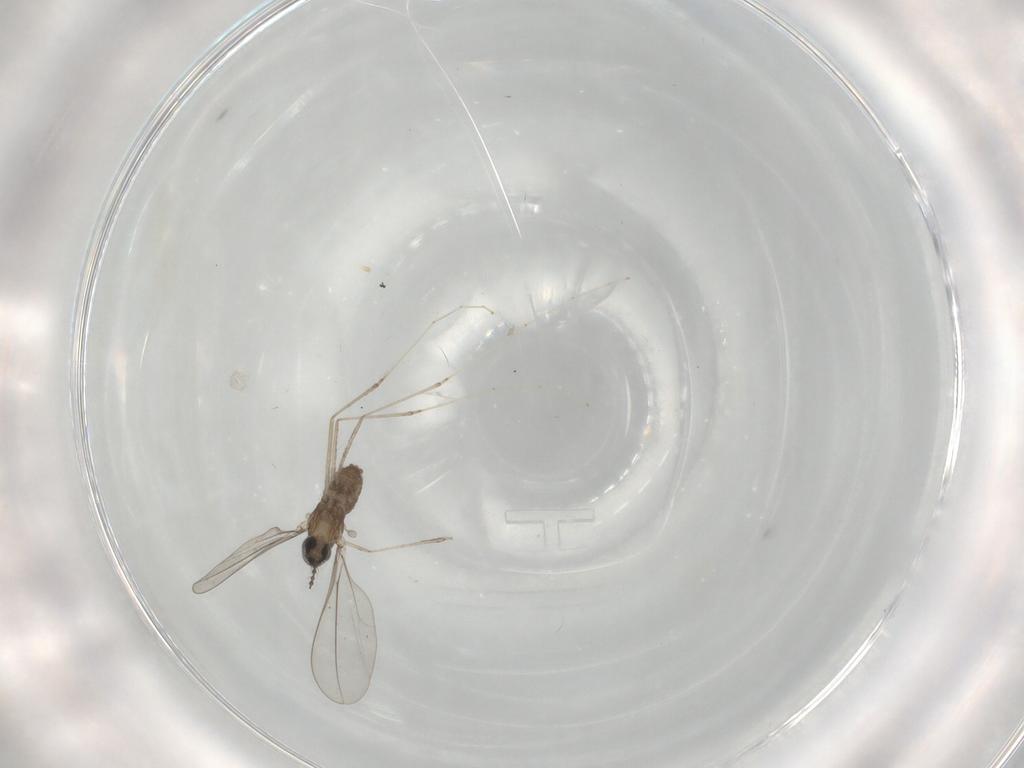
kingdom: Animalia
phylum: Arthropoda
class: Insecta
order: Diptera
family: Cecidomyiidae
